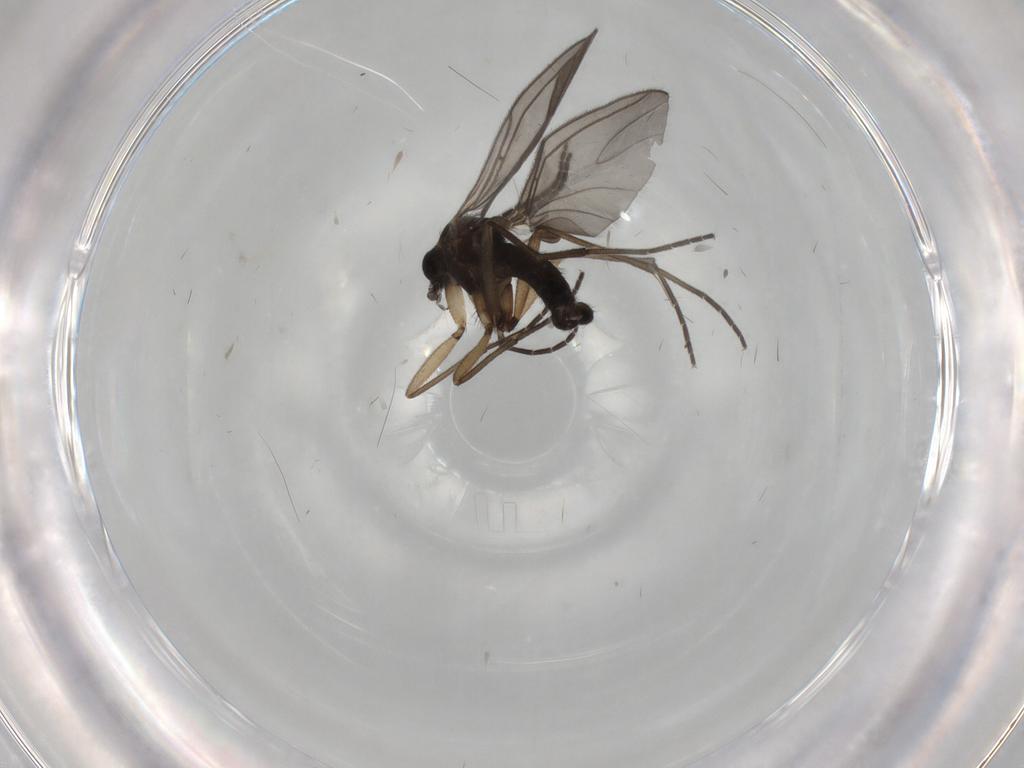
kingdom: Animalia
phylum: Arthropoda
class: Insecta
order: Diptera
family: Sciaridae
